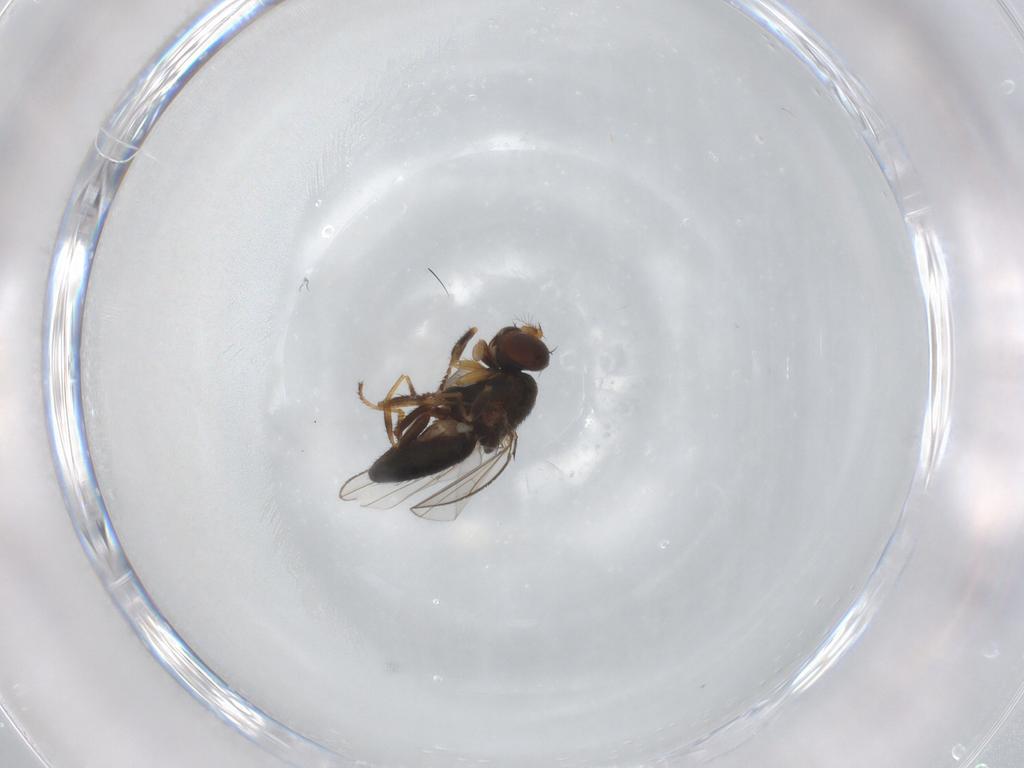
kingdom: Animalia
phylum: Arthropoda
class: Insecta
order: Diptera
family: Ephydridae
